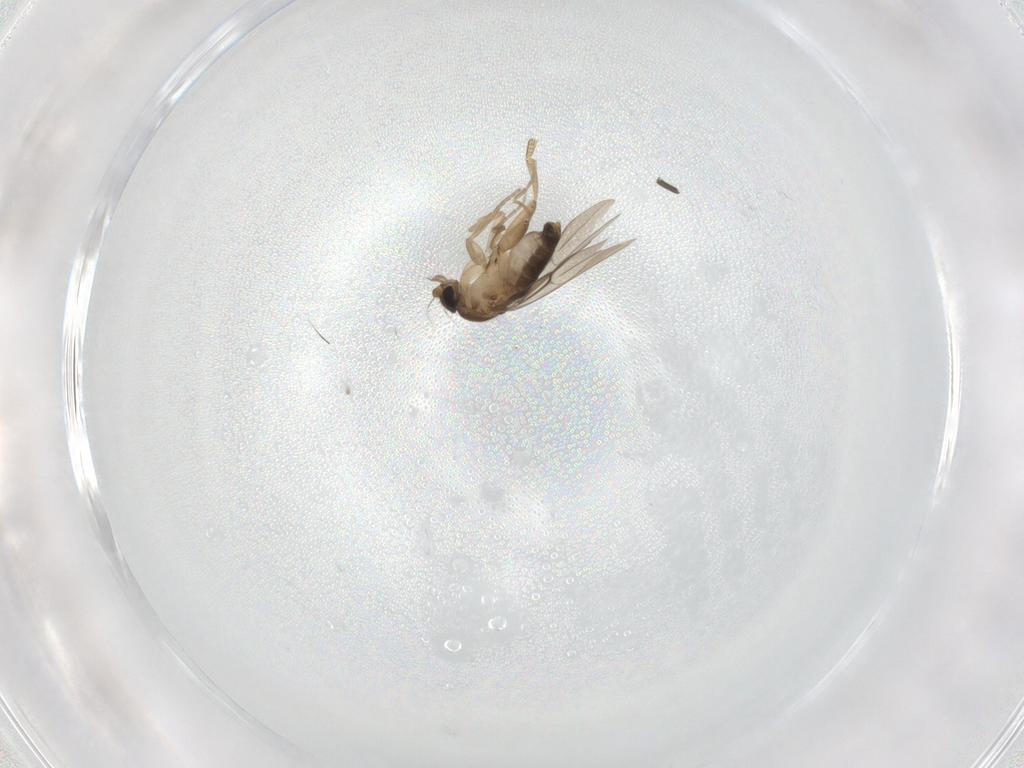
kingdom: Animalia
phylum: Arthropoda
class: Insecta
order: Diptera
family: Phoridae
